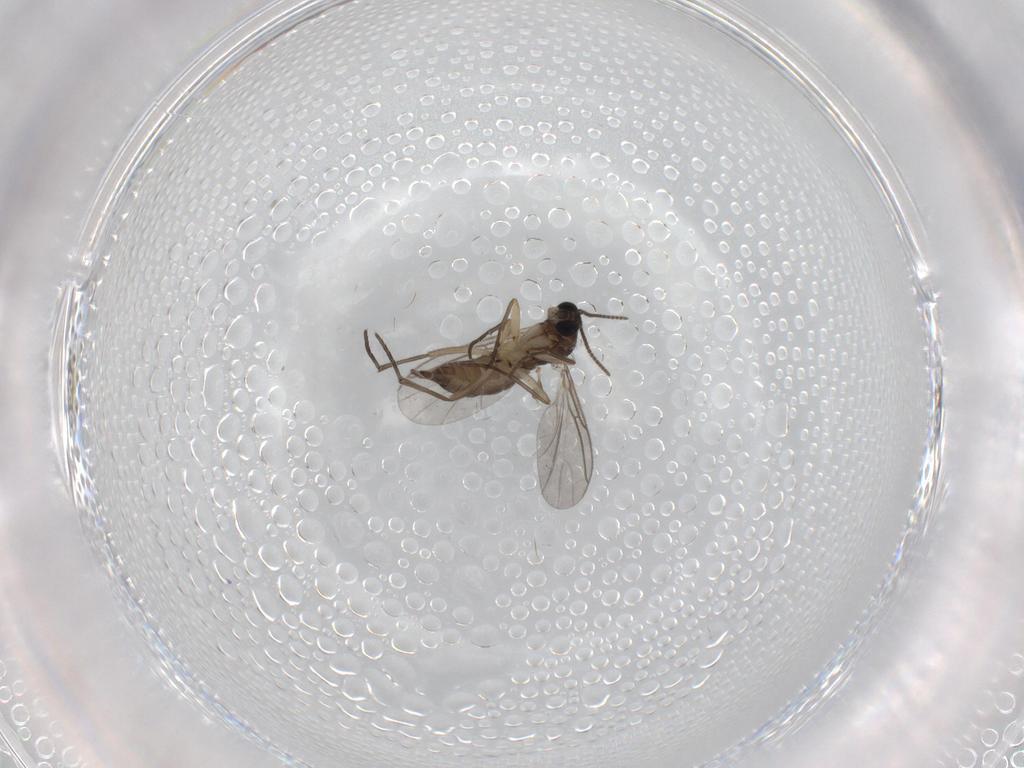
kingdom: Animalia
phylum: Arthropoda
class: Insecta
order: Diptera
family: Sciaridae
